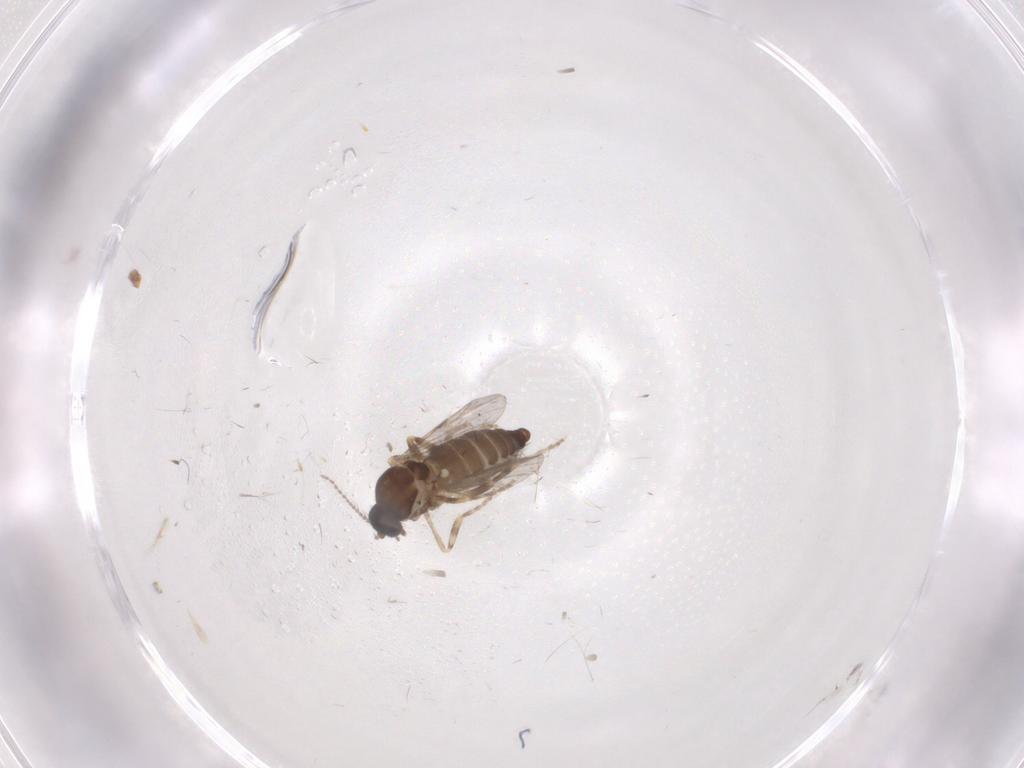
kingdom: Animalia
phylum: Arthropoda
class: Insecta
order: Diptera
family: Ceratopogonidae
